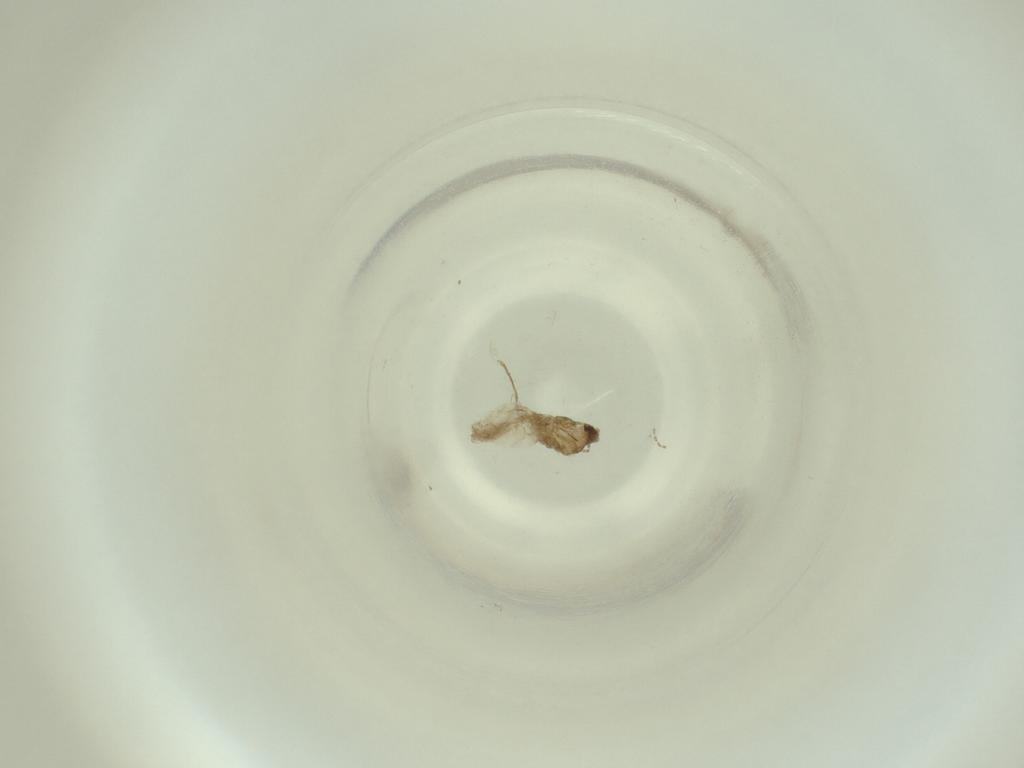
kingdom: Animalia
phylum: Arthropoda
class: Insecta
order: Diptera
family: Cecidomyiidae
